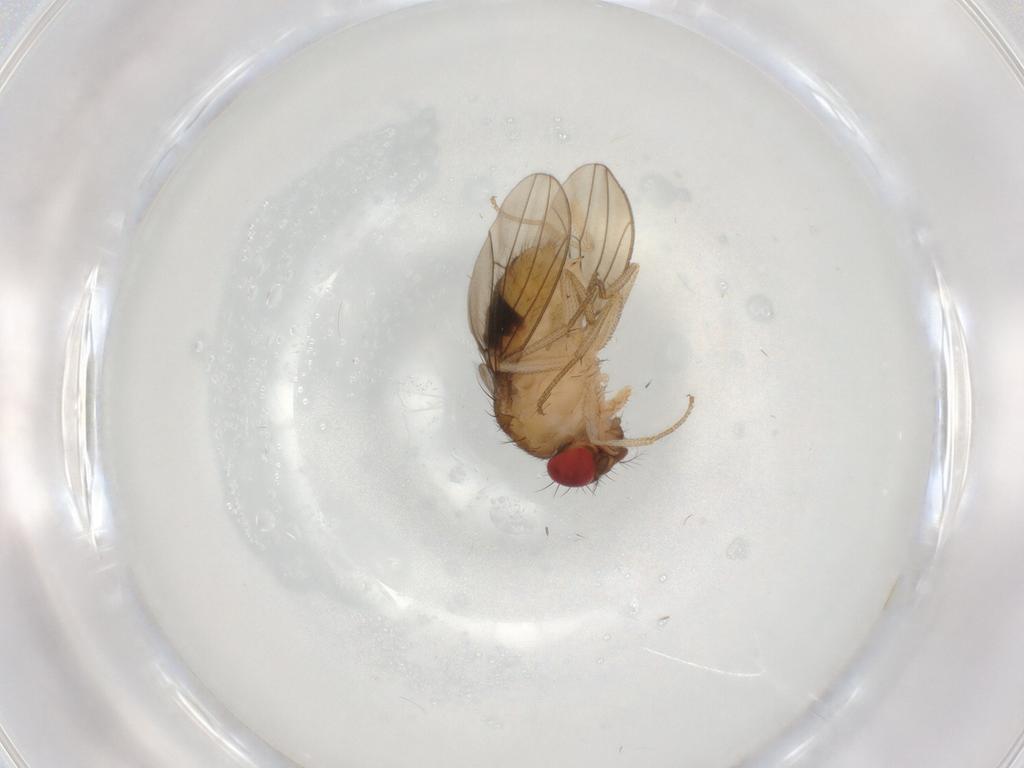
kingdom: Animalia
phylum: Arthropoda
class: Insecta
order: Diptera
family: Drosophilidae
